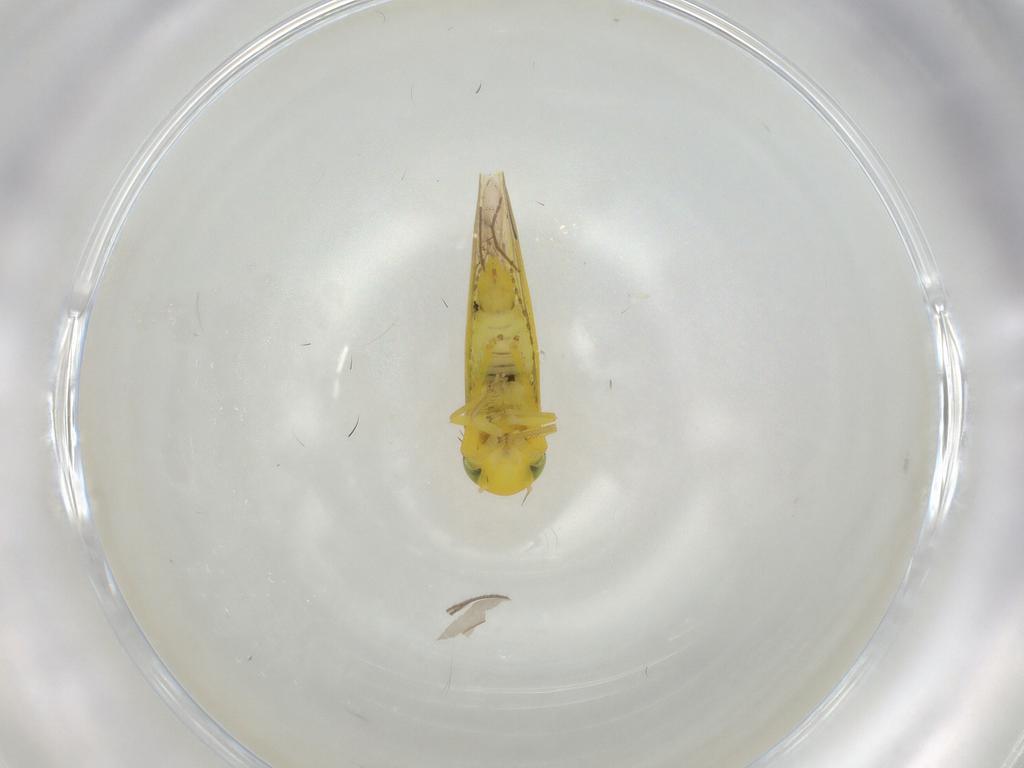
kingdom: Animalia
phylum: Arthropoda
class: Insecta
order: Hemiptera
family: Cicadellidae
